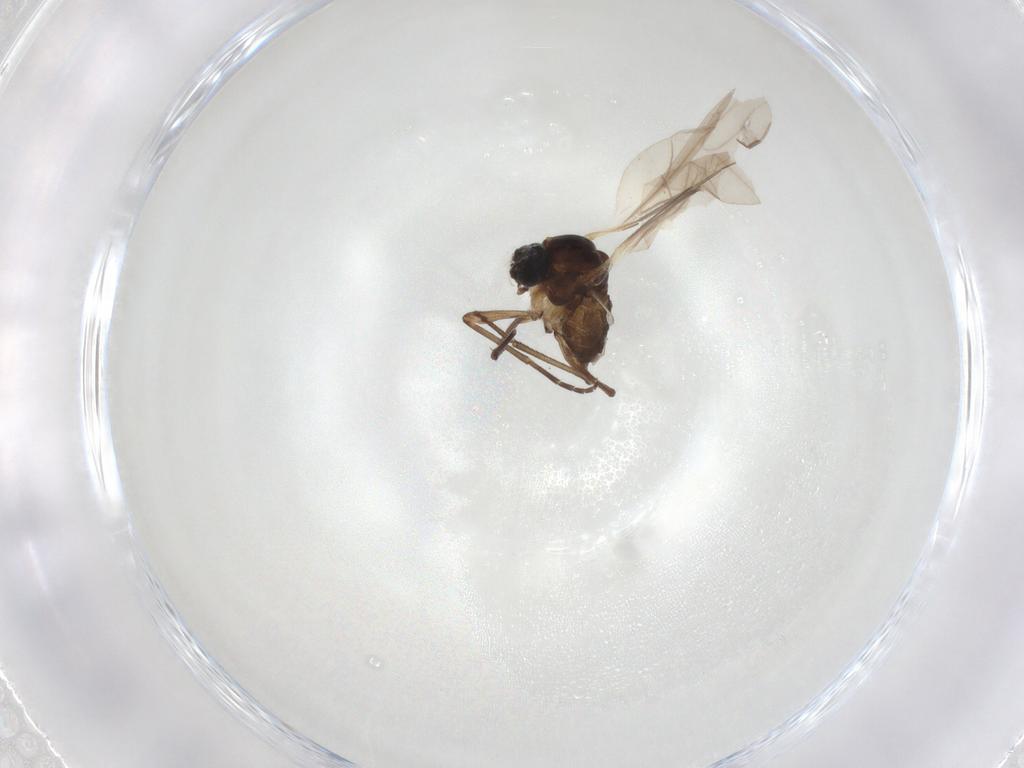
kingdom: Animalia
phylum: Arthropoda
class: Insecta
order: Diptera
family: Sciaridae
